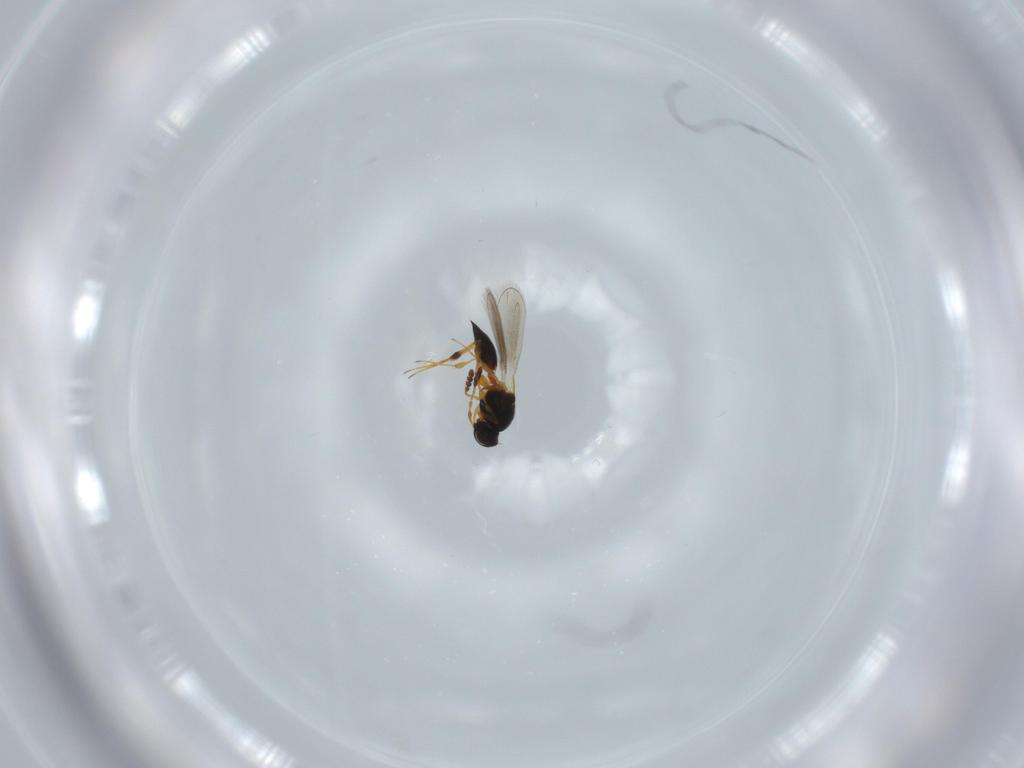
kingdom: Animalia
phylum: Arthropoda
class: Insecta
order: Hymenoptera
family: Platygastridae
